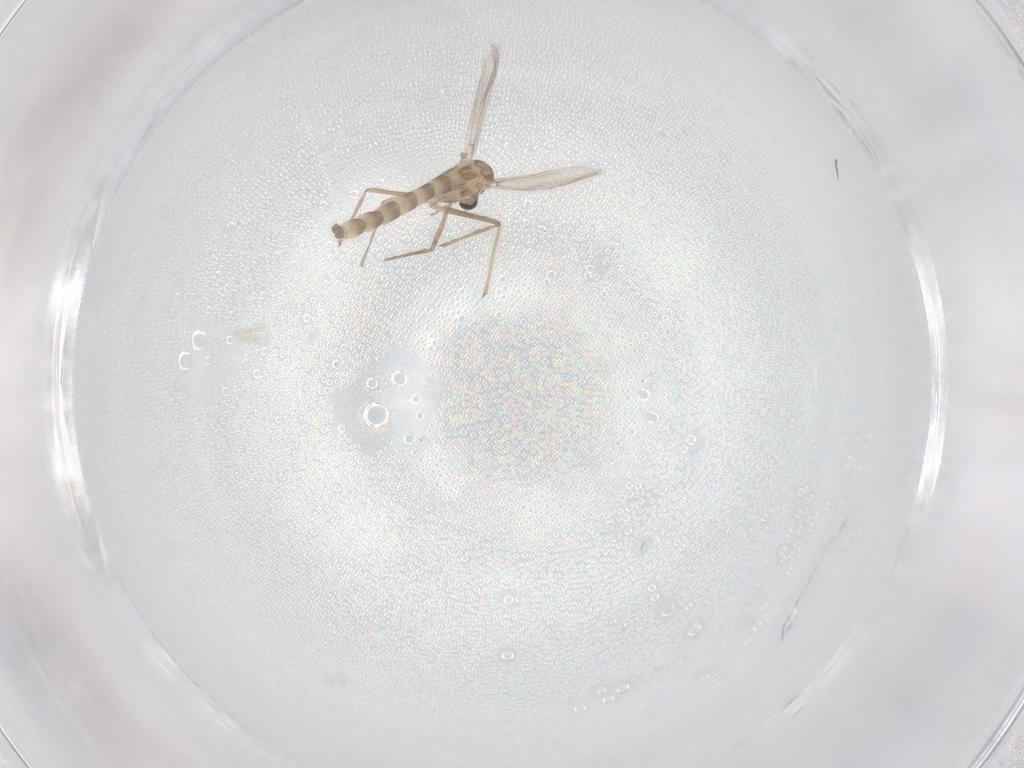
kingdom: Animalia
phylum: Arthropoda
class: Insecta
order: Diptera
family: Chironomidae
